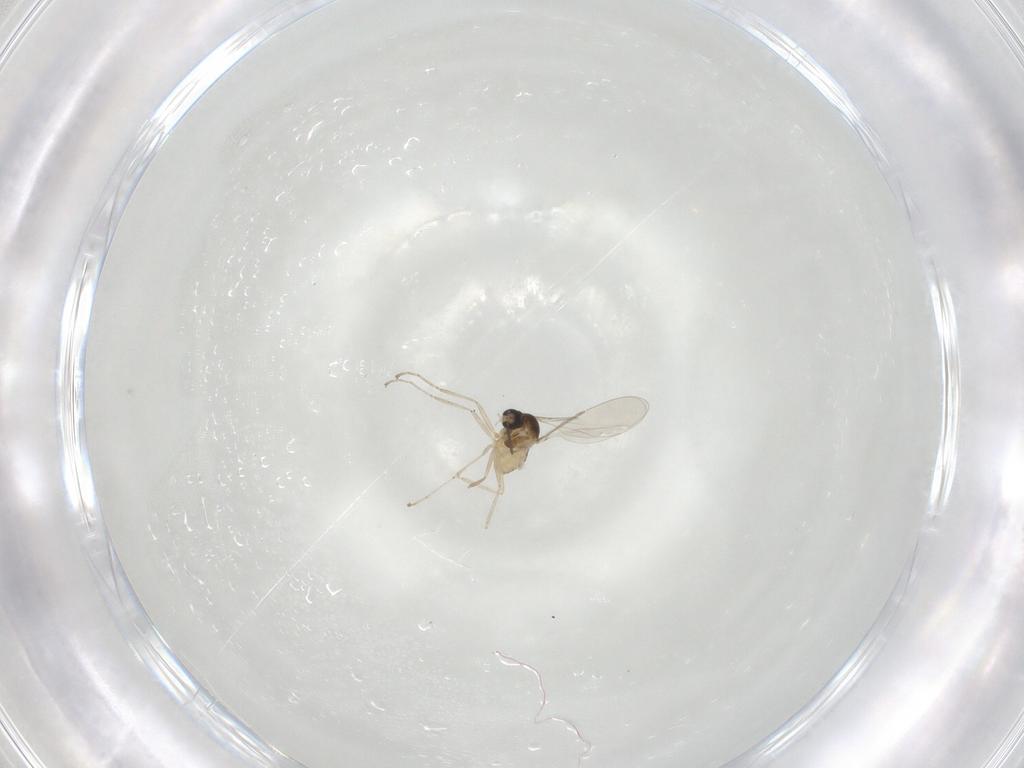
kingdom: Animalia
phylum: Arthropoda
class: Insecta
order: Diptera
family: Cecidomyiidae
